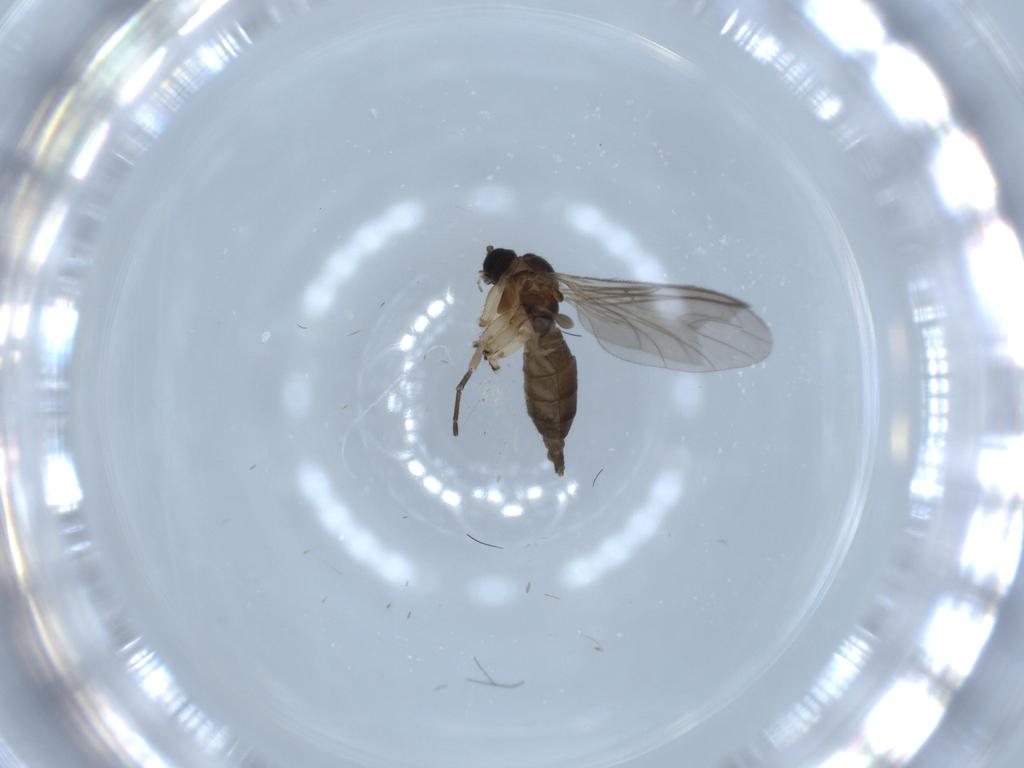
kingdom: Animalia
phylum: Arthropoda
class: Insecta
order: Diptera
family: Sciaridae
